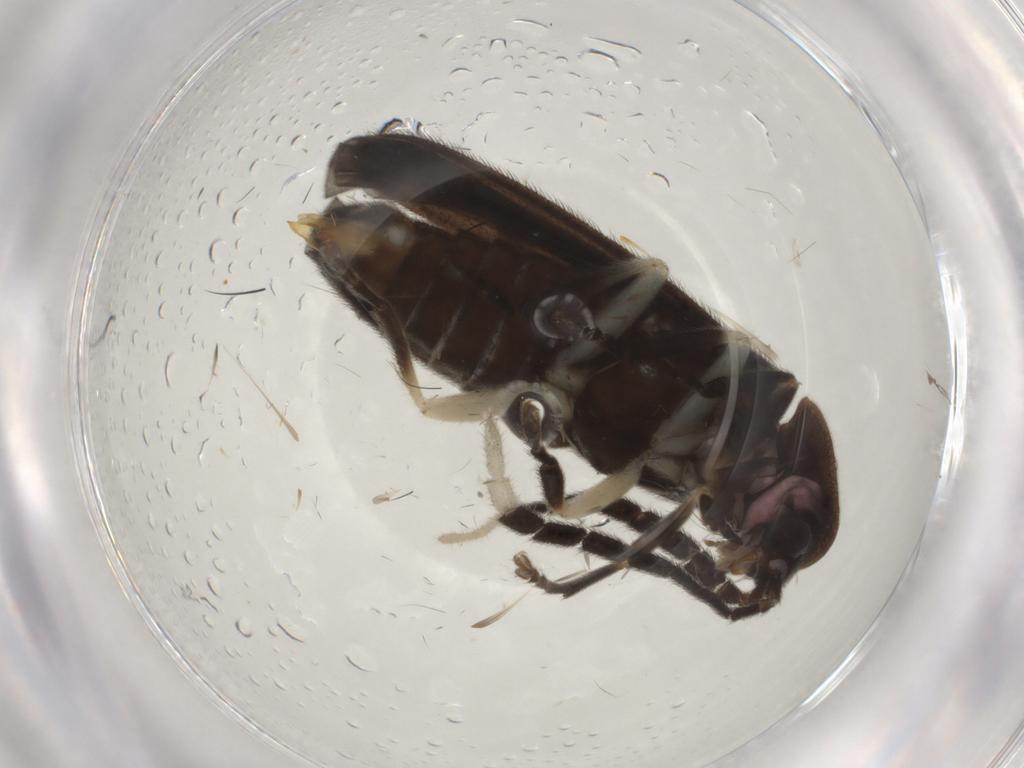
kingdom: Animalia
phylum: Arthropoda
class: Insecta
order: Coleoptera
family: Lampyridae
